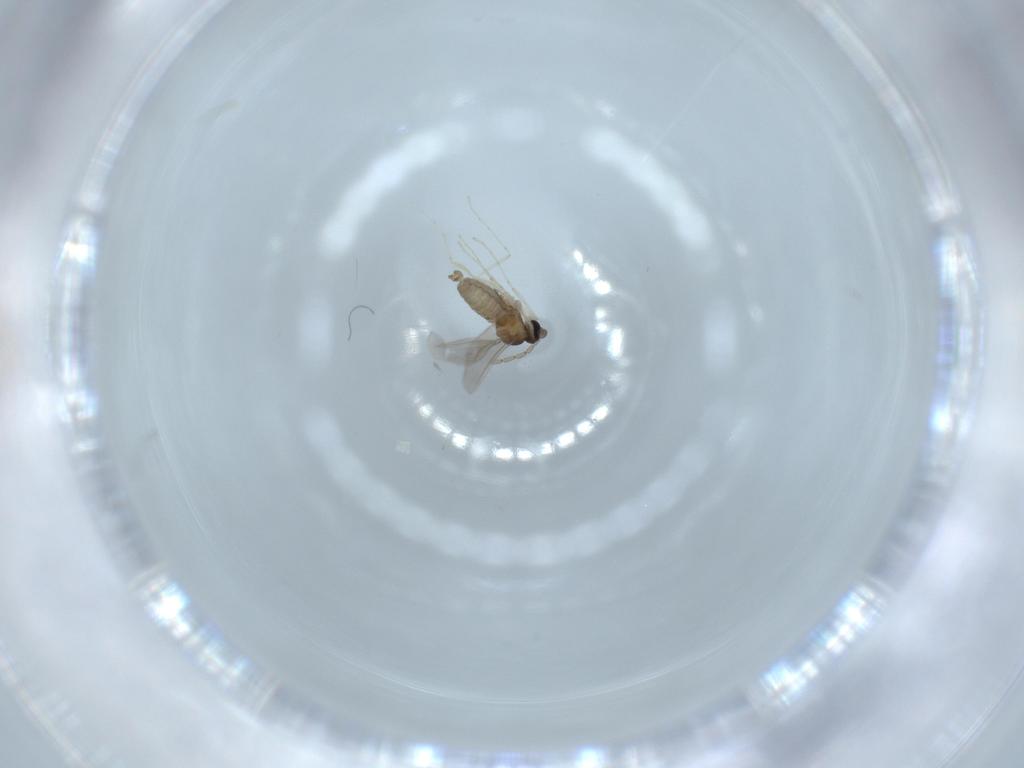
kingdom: Animalia
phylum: Arthropoda
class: Insecta
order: Diptera
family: Cecidomyiidae
